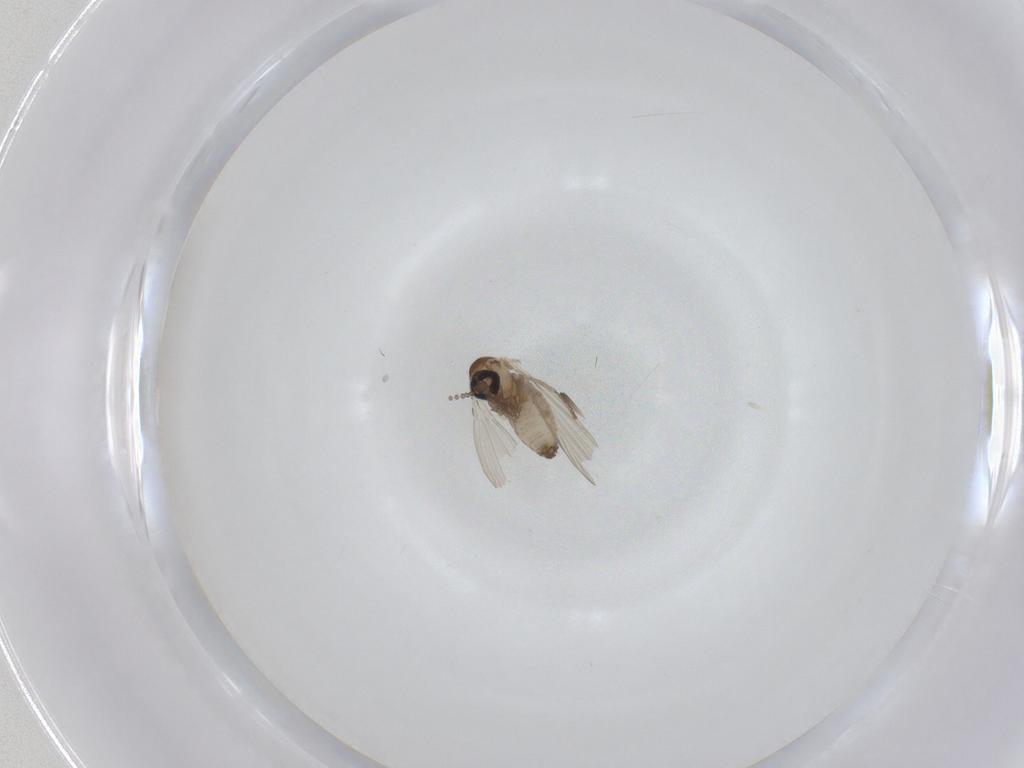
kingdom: Animalia
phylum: Arthropoda
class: Insecta
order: Diptera
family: Psychodidae
